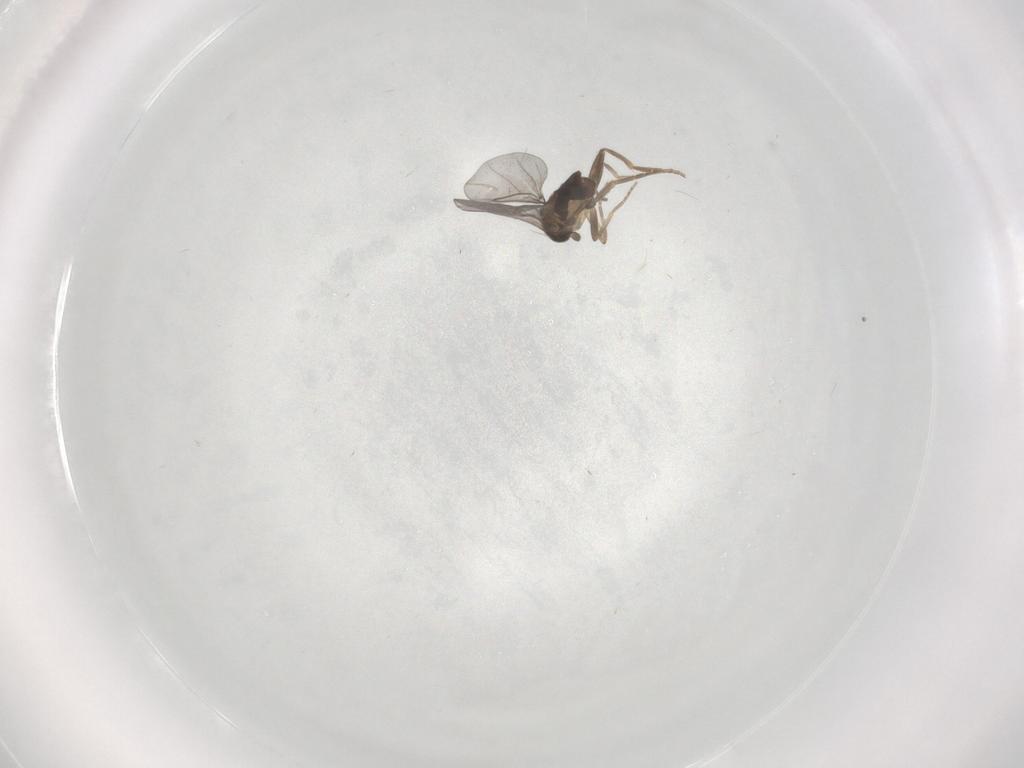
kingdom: Animalia
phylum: Arthropoda
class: Insecta
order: Diptera
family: Sciaridae
